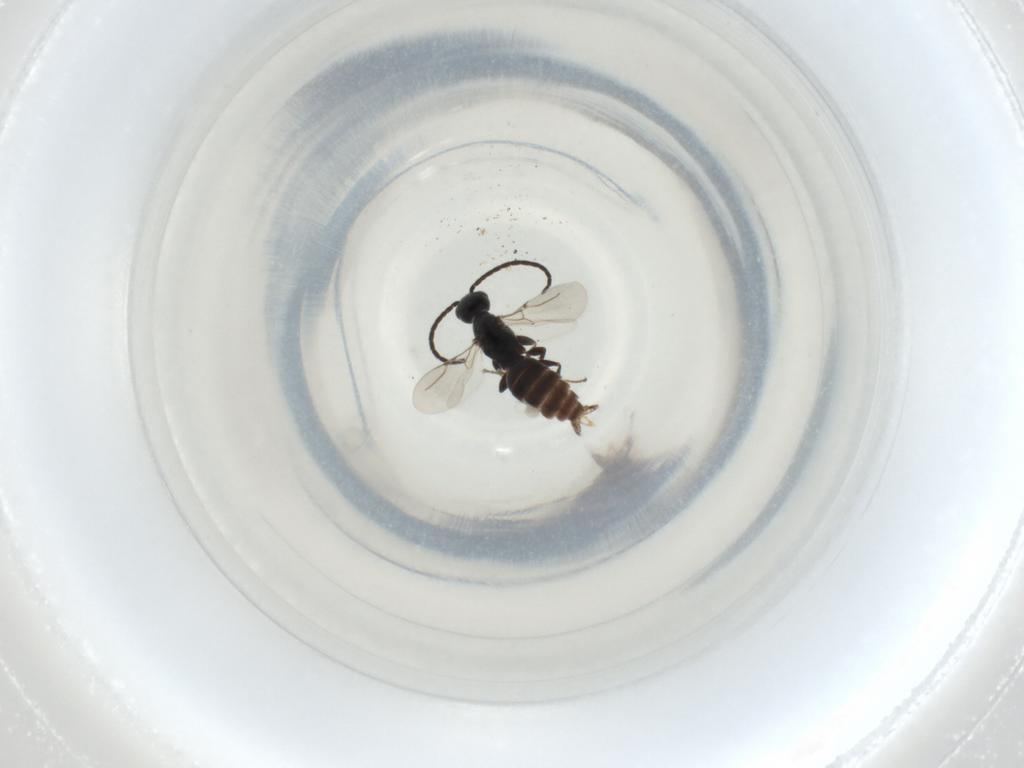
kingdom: Animalia
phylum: Arthropoda
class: Insecta
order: Hymenoptera
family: Bethylidae
